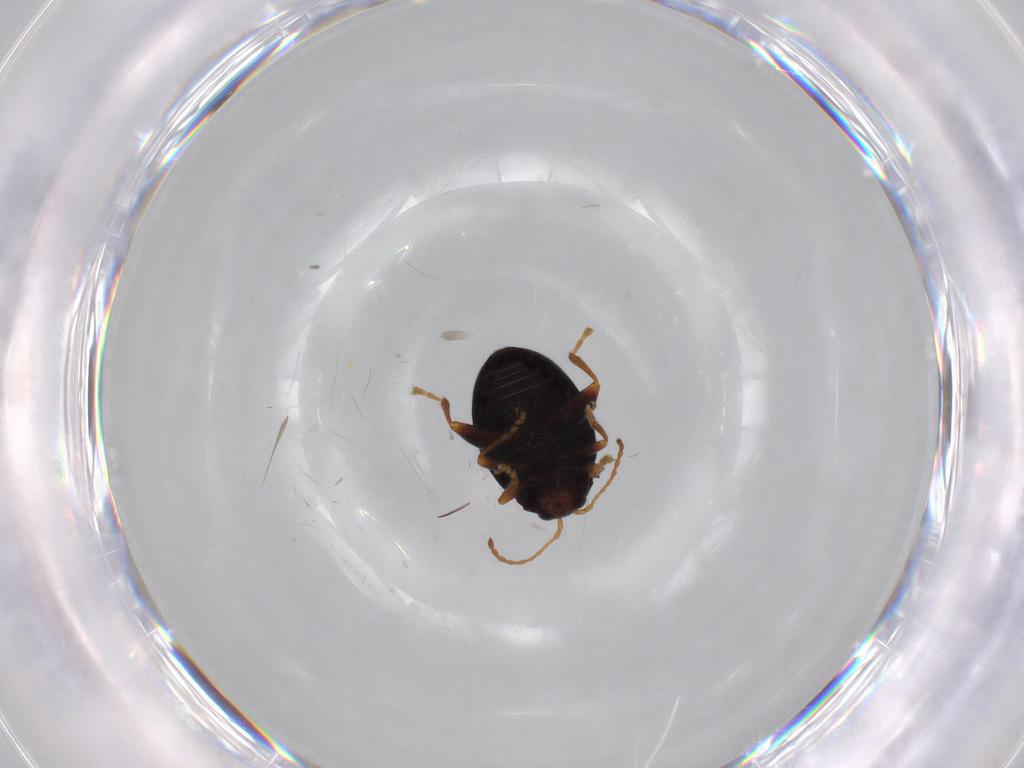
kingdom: Animalia
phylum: Arthropoda
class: Insecta
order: Coleoptera
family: Chrysomelidae
